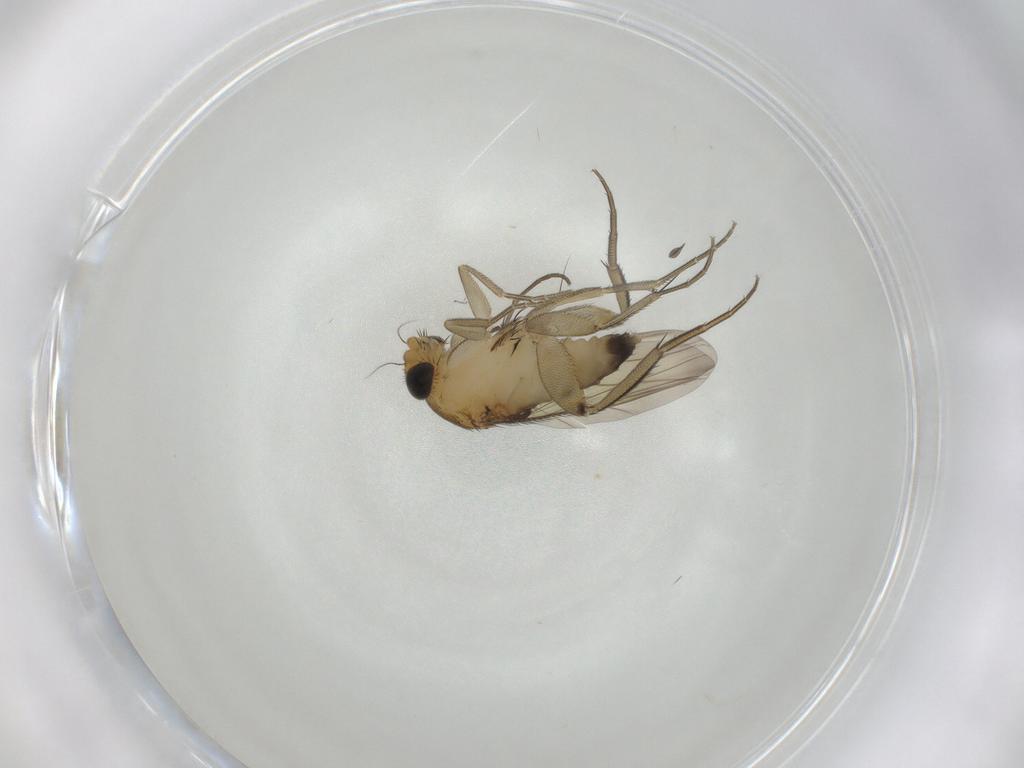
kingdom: Animalia
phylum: Arthropoda
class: Insecta
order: Diptera
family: Phoridae
